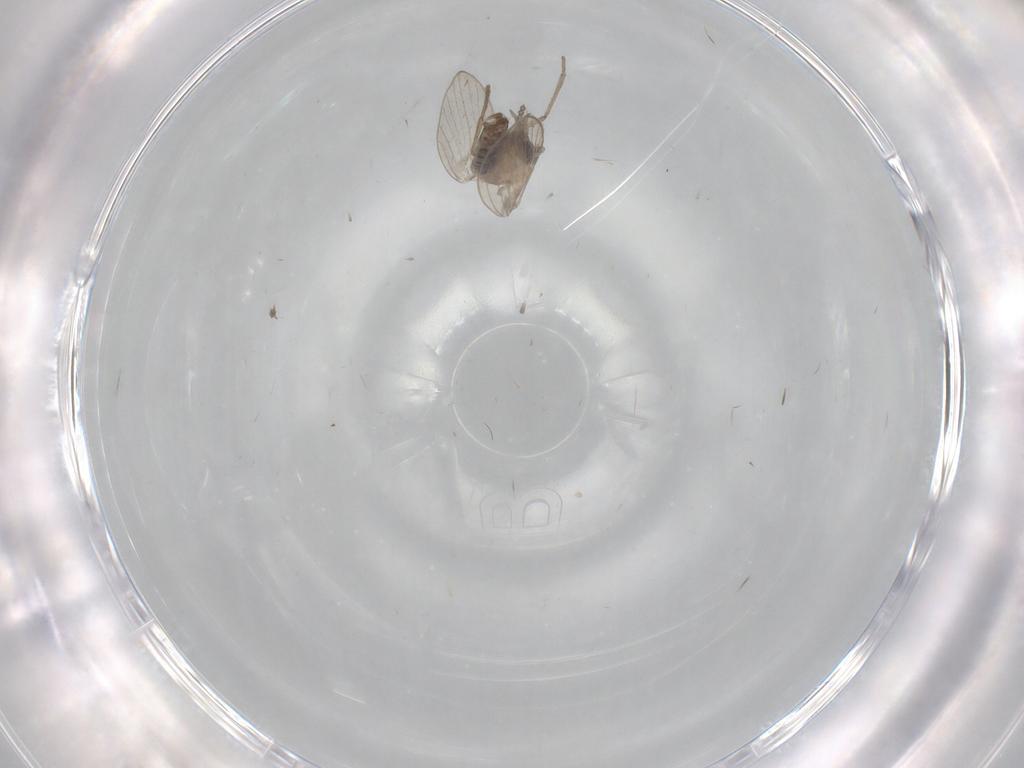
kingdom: Animalia
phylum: Arthropoda
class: Insecta
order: Diptera
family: Psychodidae
